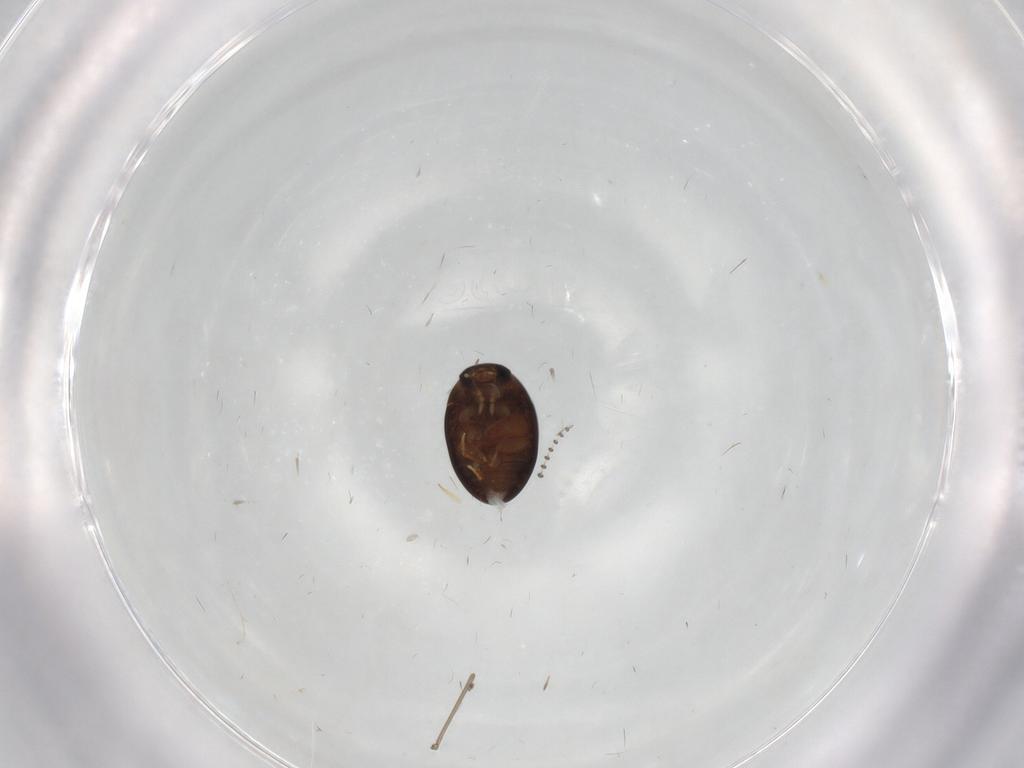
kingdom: Animalia
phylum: Arthropoda
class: Insecta
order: Coleoptera
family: Phalacridae
